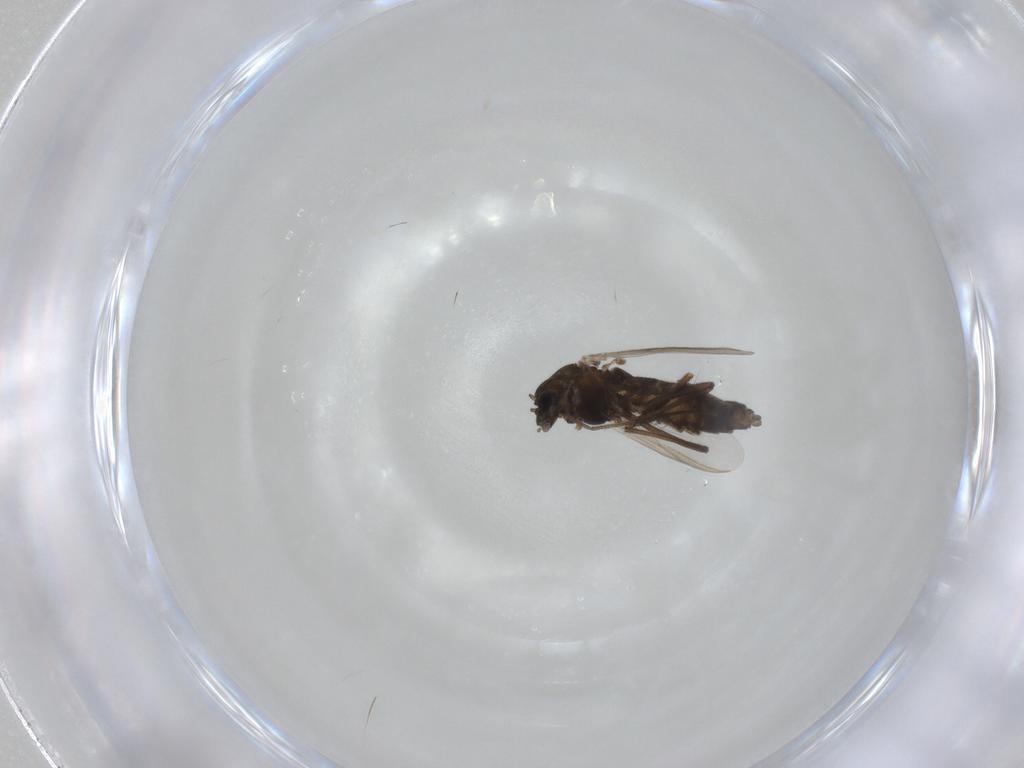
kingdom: Animalia
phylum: Arthropoda
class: Insecta
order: Diptera
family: Chironomidae
